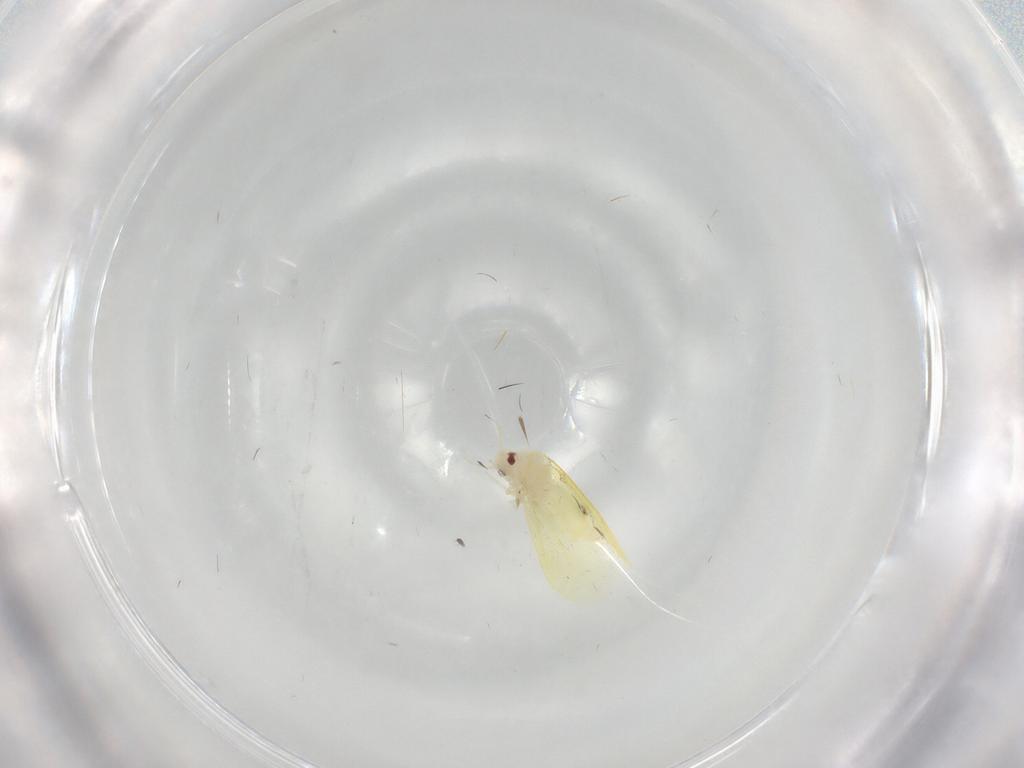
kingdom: Animalia
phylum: Arthropoda
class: Insecta
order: Hemiptera
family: Aleyrodidae
